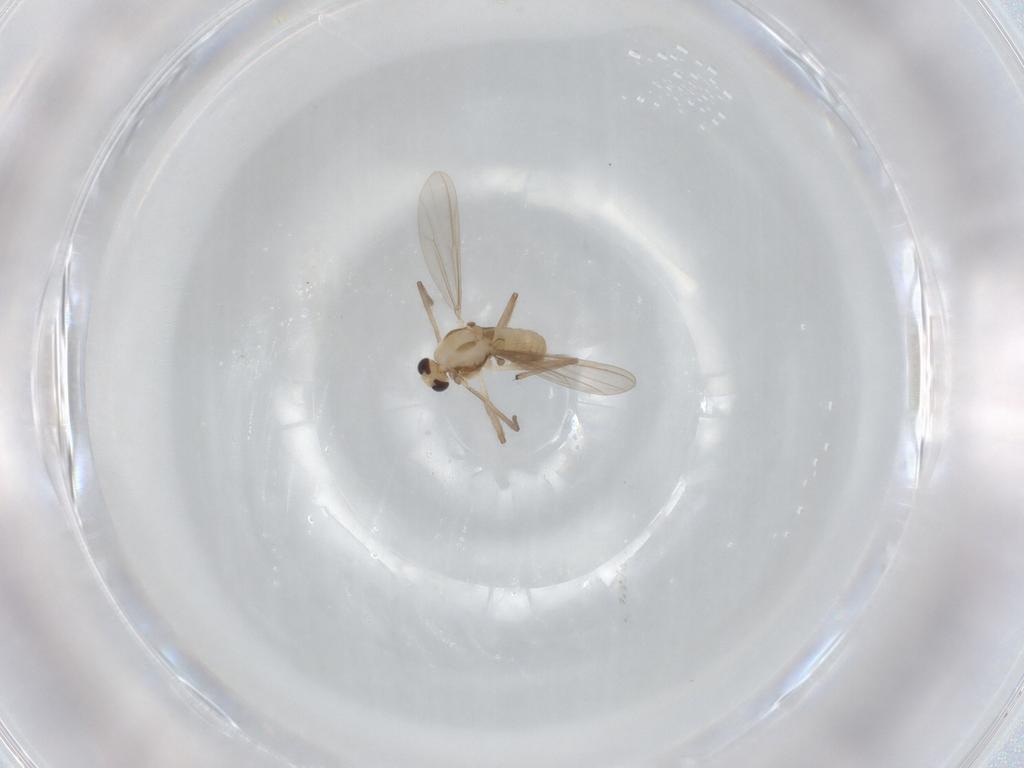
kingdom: Animalia
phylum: Arthropoda
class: Insecta
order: Diptera
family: Chironomidae
